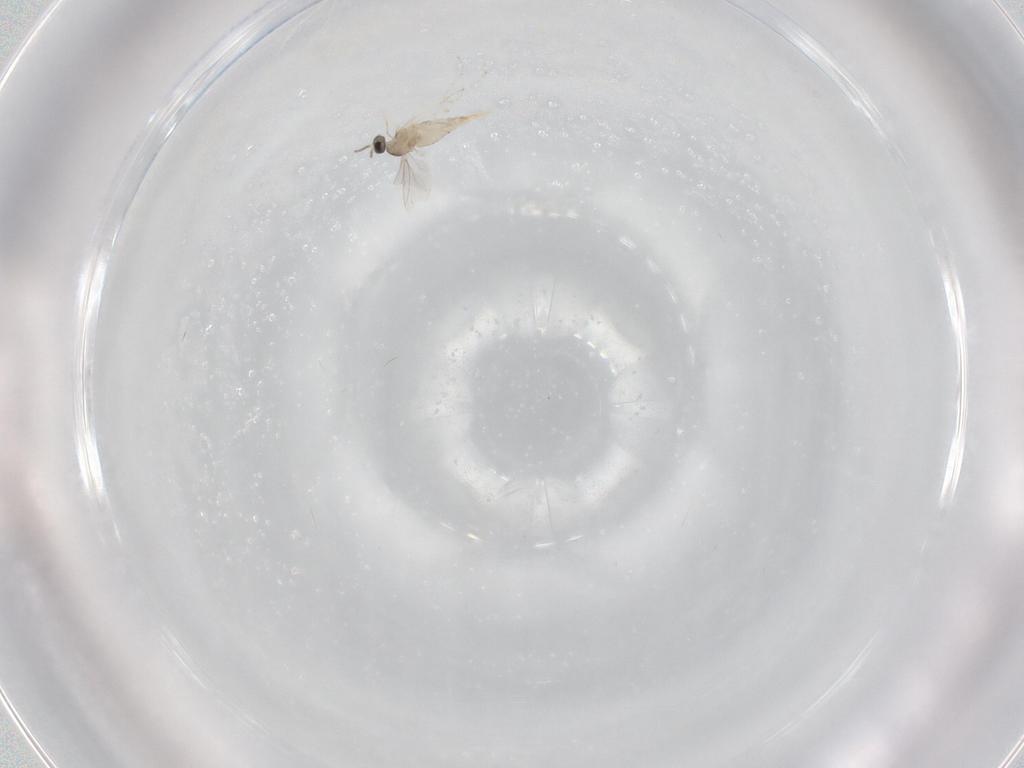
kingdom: Animalia
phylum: Arthropoda
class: Insecta
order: Diptera
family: Cecidomyiidae
